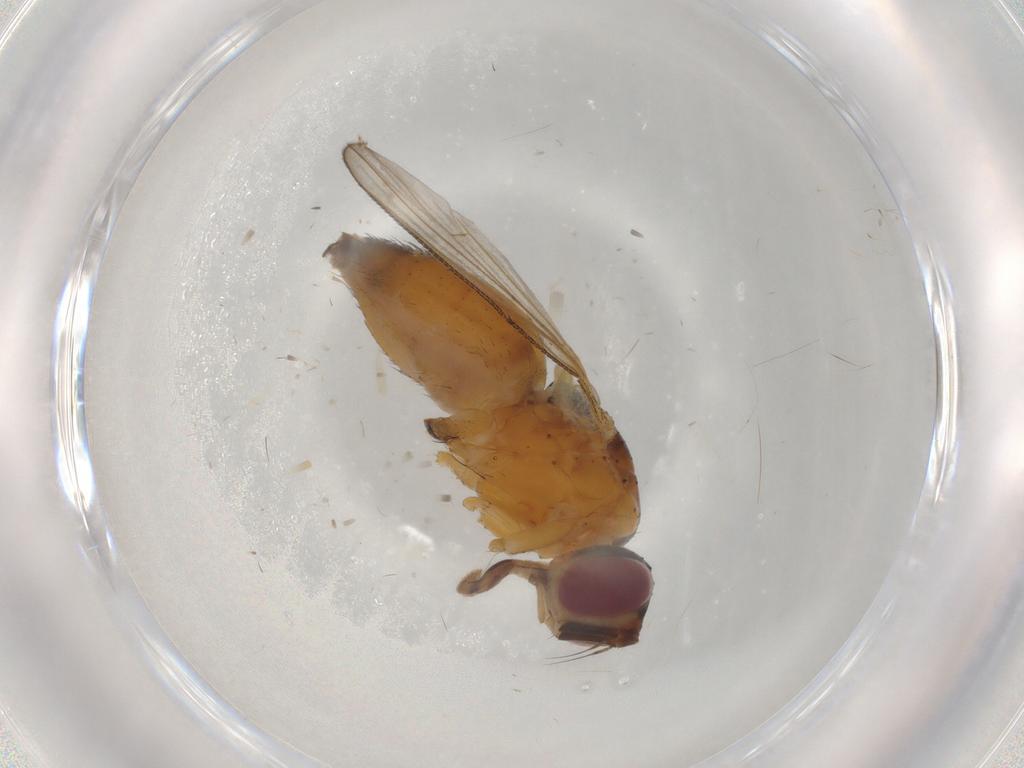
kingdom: Animalia
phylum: Arthropoda
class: Insecta
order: Diptera
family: Muscidae
